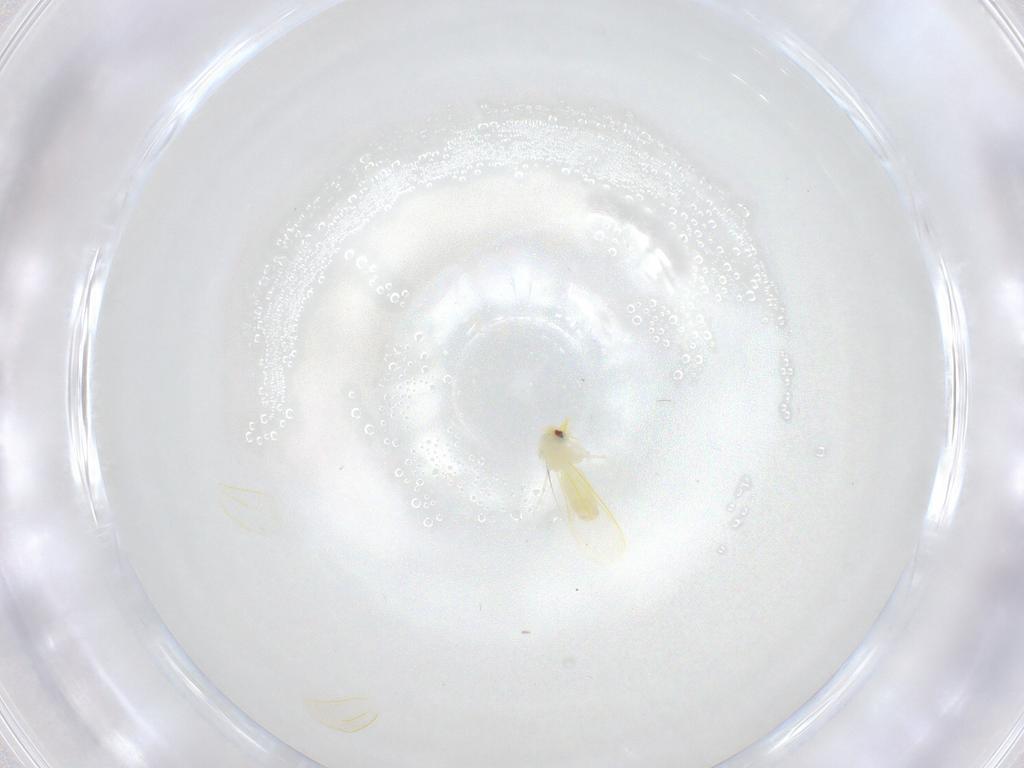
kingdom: Animalia
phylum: Arthropoda
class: Insecta
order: Hemiptera
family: Aleyrodidae
